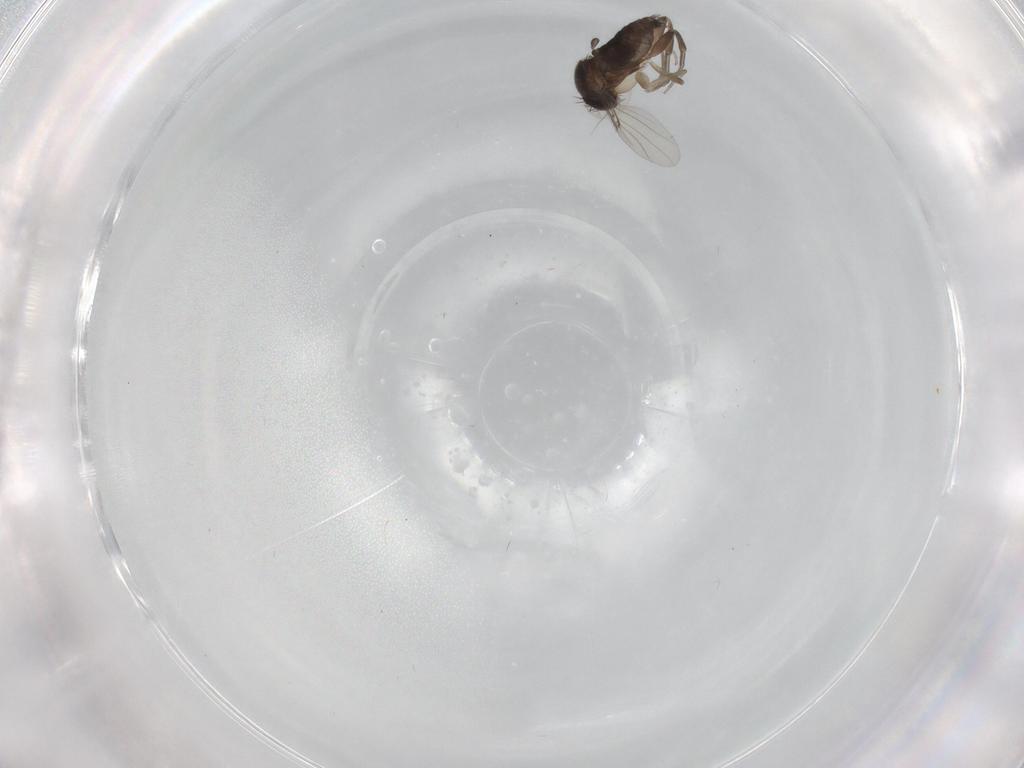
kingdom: Animalia
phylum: Arthropoda
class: Insecta
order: Diptera
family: Phoridae
